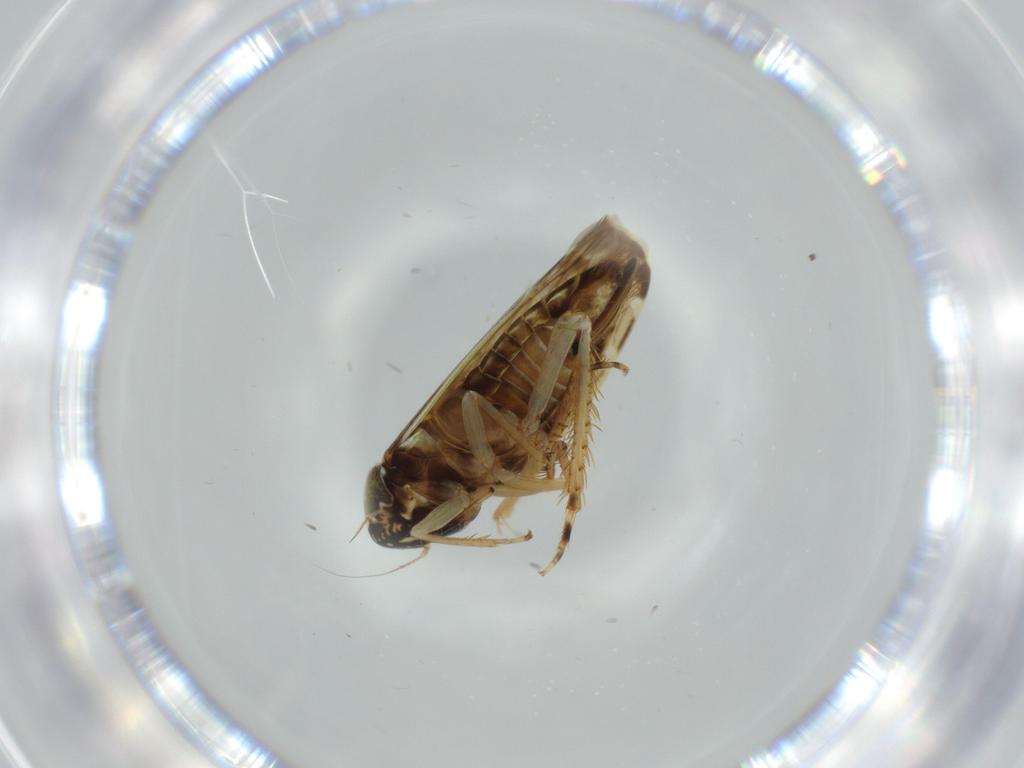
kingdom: Animalia
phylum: Arthropoda
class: Insecta
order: Hemiptera
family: Cicadellidae
